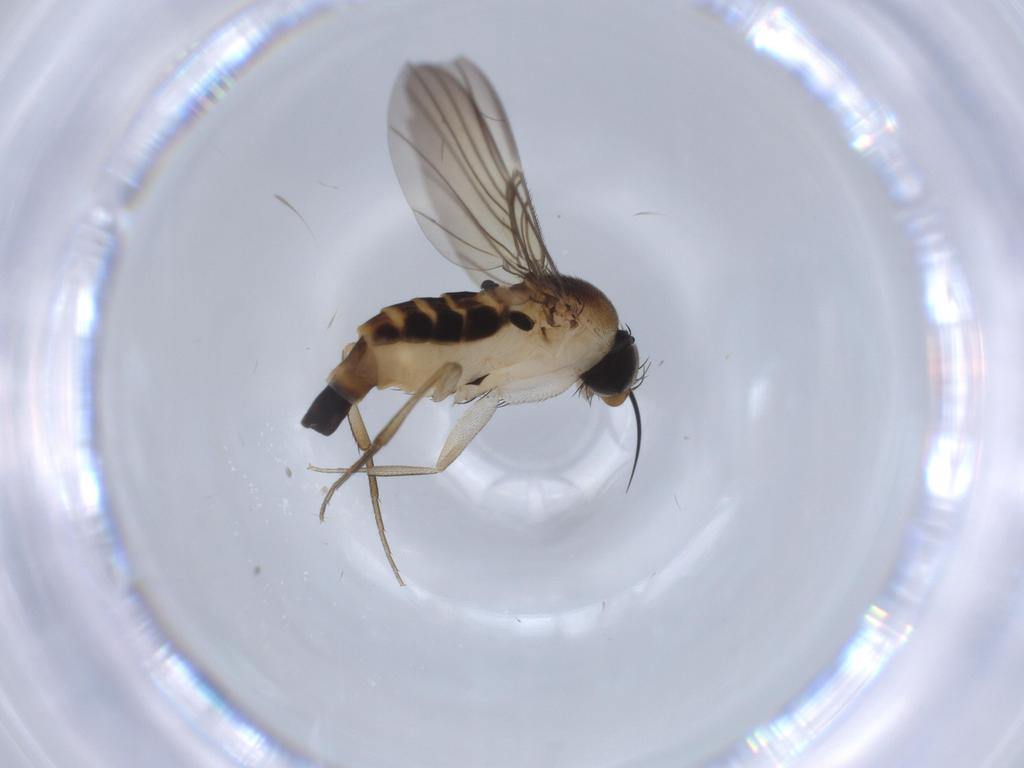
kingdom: Animalia
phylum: Arthropoda
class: Insecta
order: Diptera
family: Phoridae
